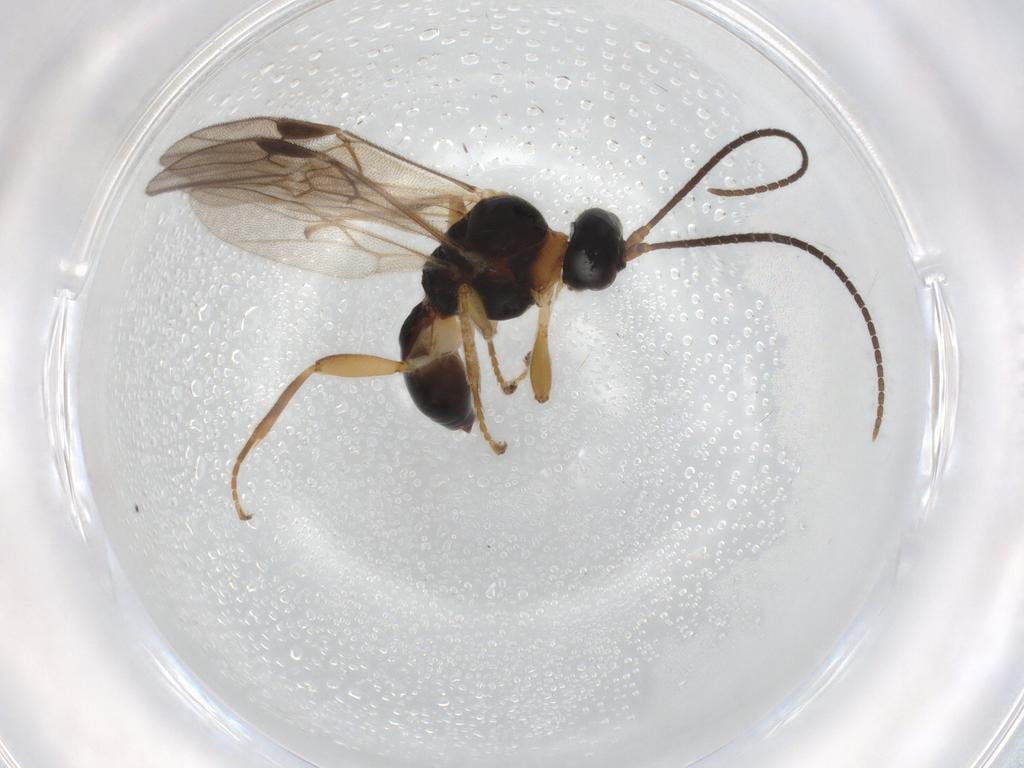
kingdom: Animalia
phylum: Arthropoda
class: Insecta
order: Hymenoptera
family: Braconidae
